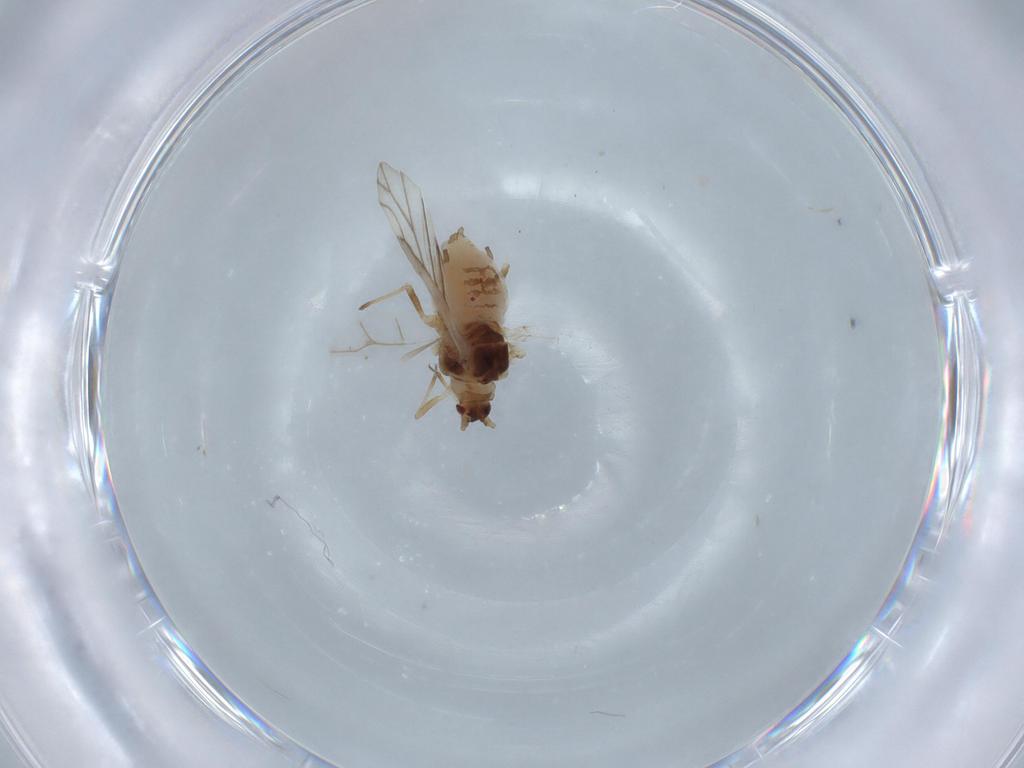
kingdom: Animalia
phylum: Arthropoda
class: Insecta
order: Hemiptera
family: Aphididae
